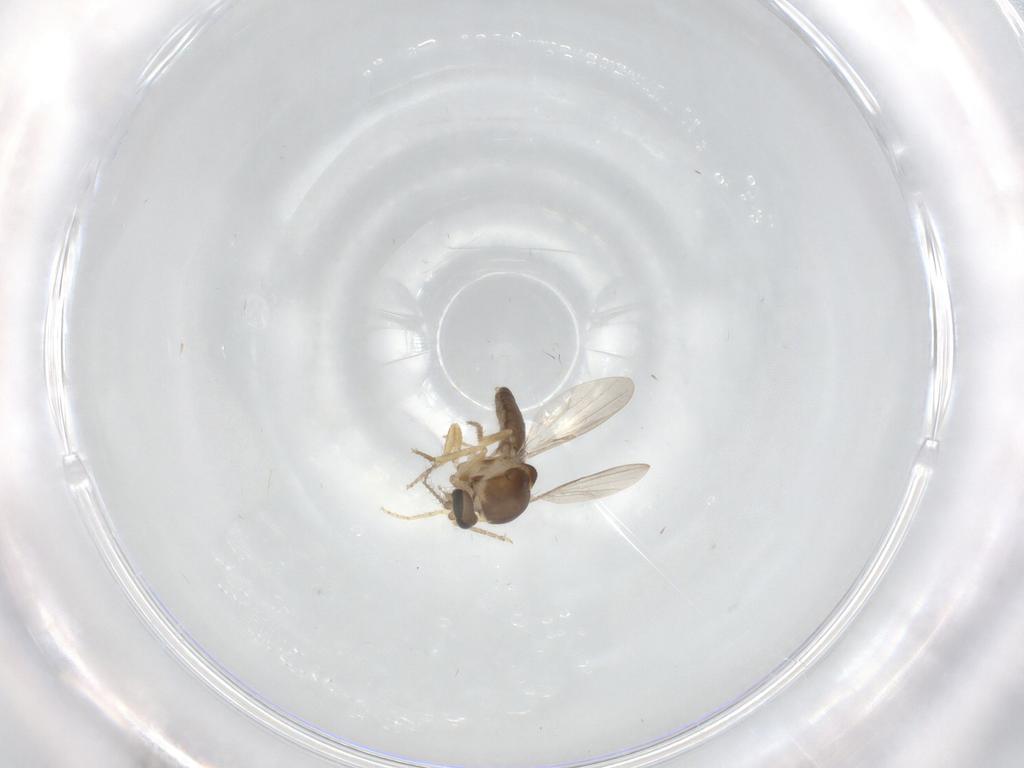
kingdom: Animalia
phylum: Arthropoda
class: Insecta
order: Diptera
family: Ceratopogonidae
